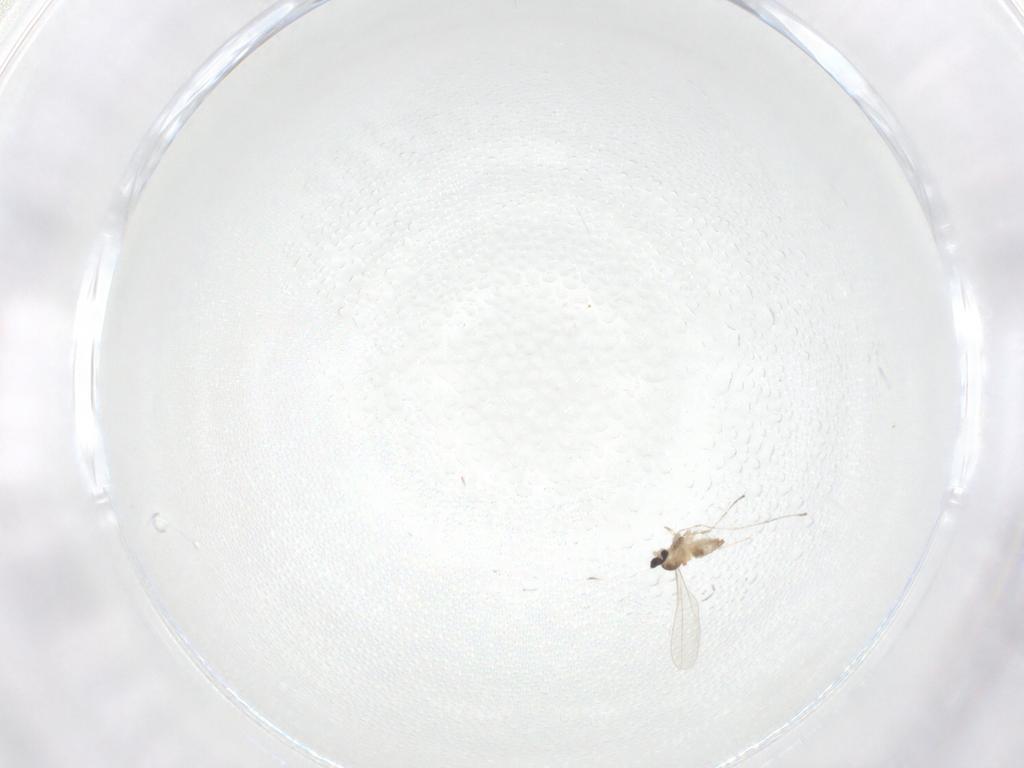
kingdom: Animalia
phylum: Arthropoda
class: Insecta
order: Diptera
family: Cecidomyiidae
